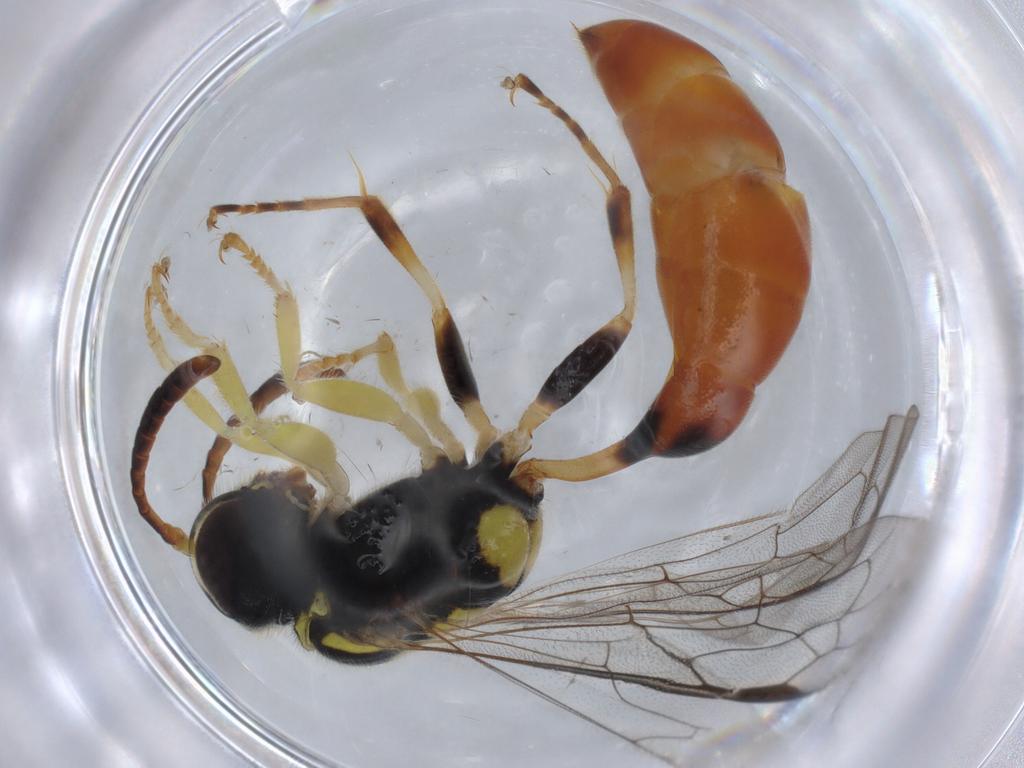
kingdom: Animalia
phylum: Arthropoda
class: Insecta
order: Hymenoptera
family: Crabronidae
